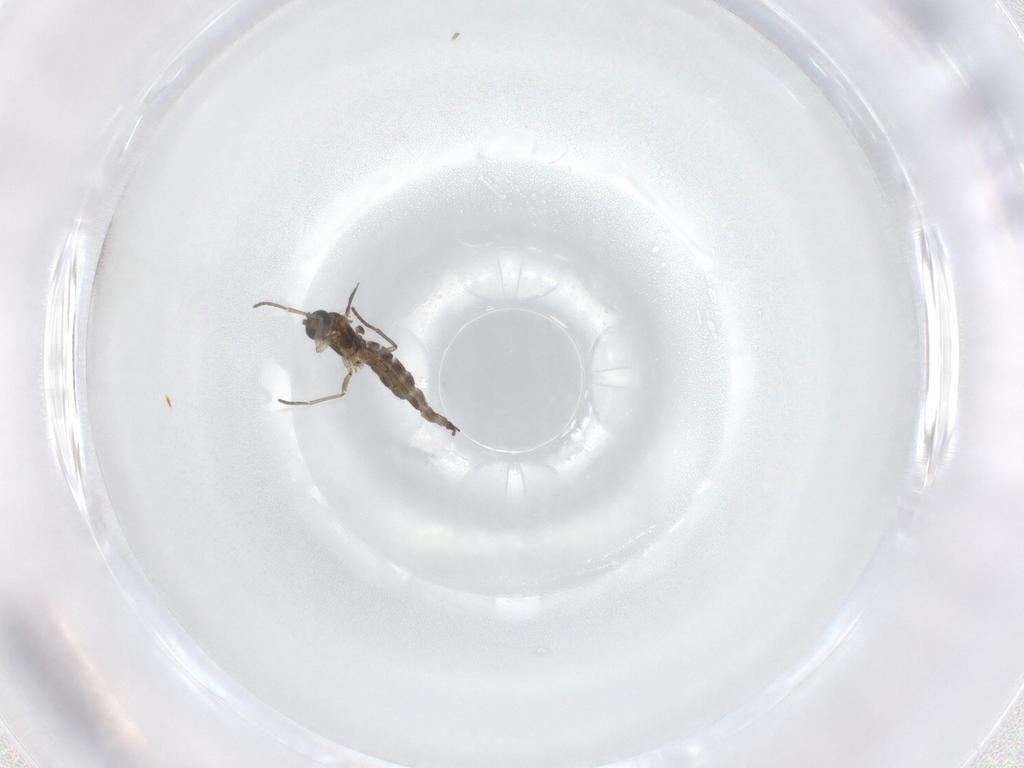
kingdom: Animalia
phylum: Arthropoda
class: Insecta
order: Diptera
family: Sciaridae
